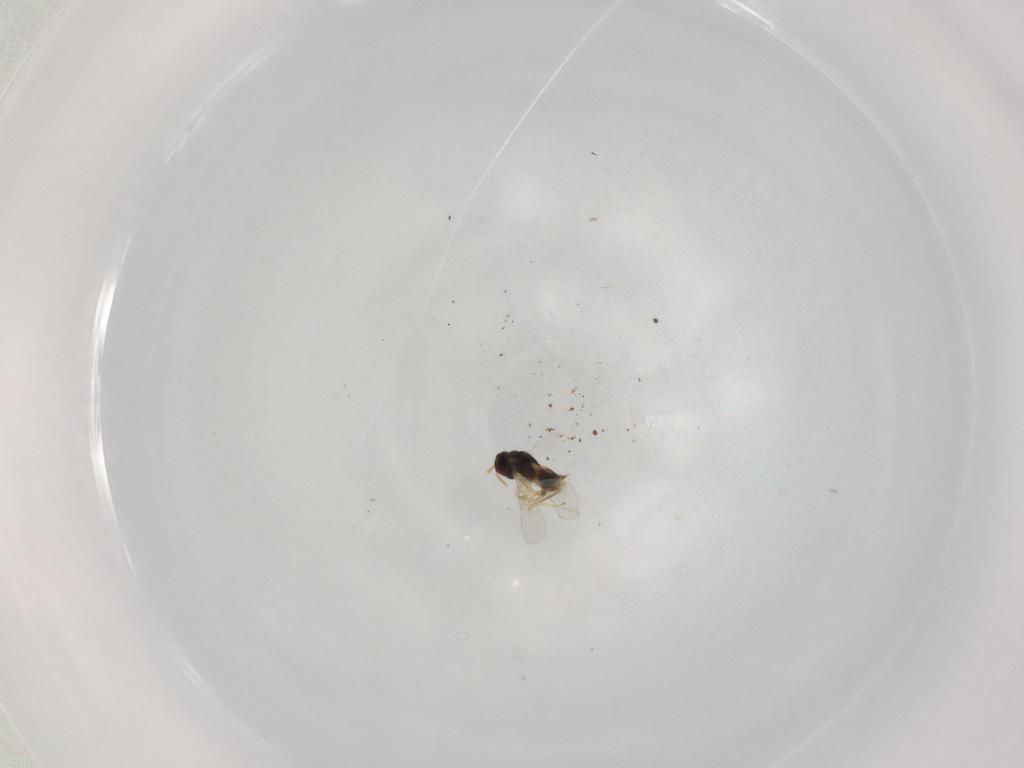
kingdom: Animalia
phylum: Arthropoda
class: Insecta
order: Hymenoptera
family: Aphelinidae
